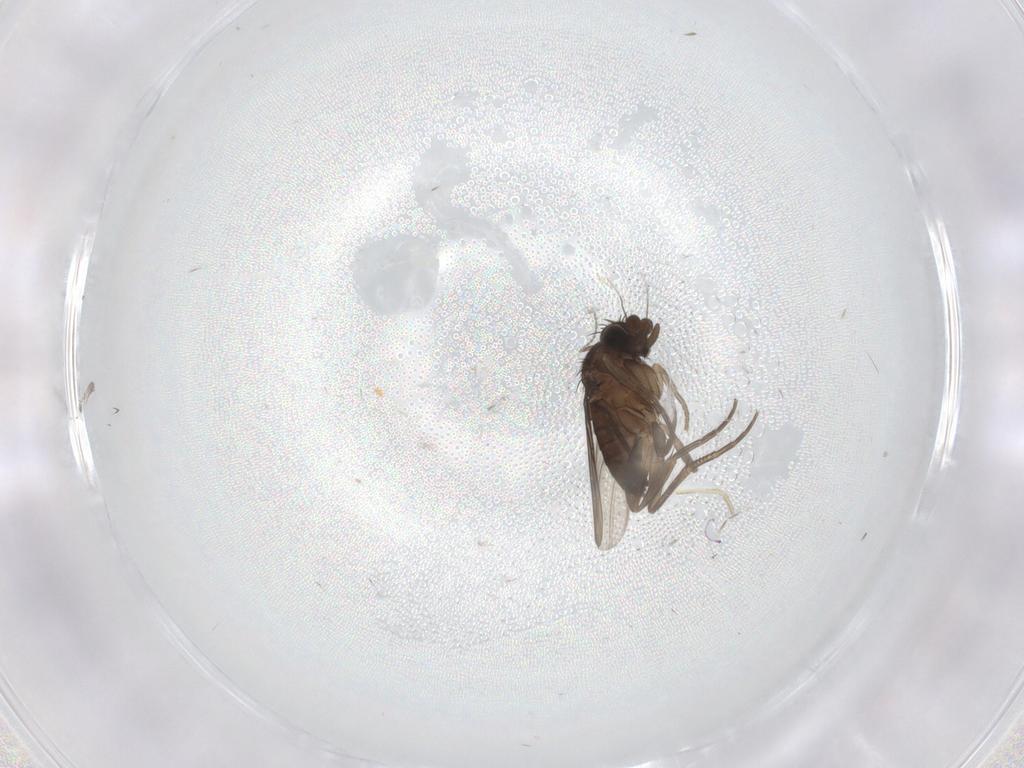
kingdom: Animalia
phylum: Arthropoda
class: Insecta
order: Diptera
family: Phoridae
